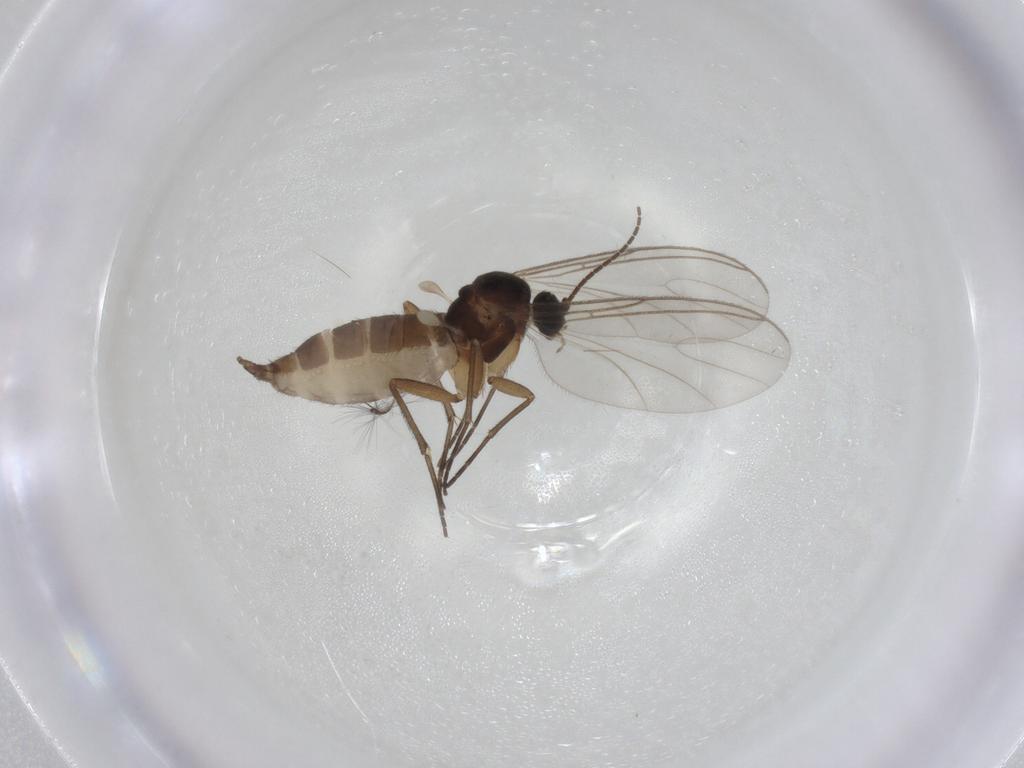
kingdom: Animalia
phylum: Arthropoda
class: Insecta
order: Diptera
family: Sciaridae
